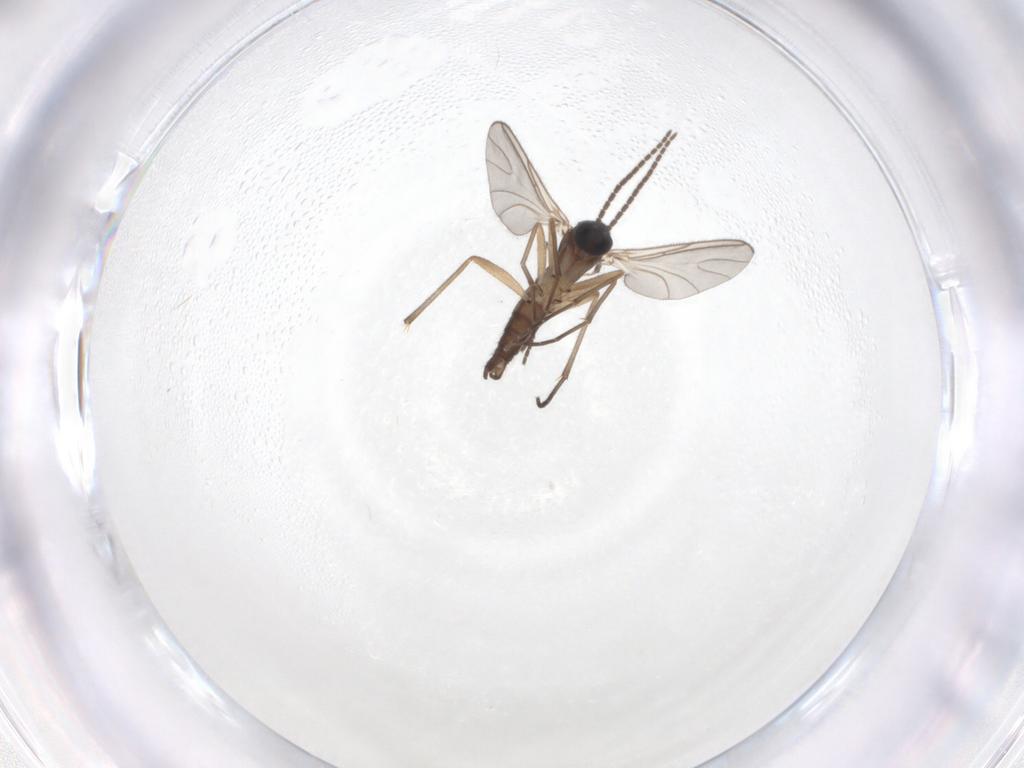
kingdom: Animalia
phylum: Arthropoda
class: Insecta
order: Diptera
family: Sciaridae
